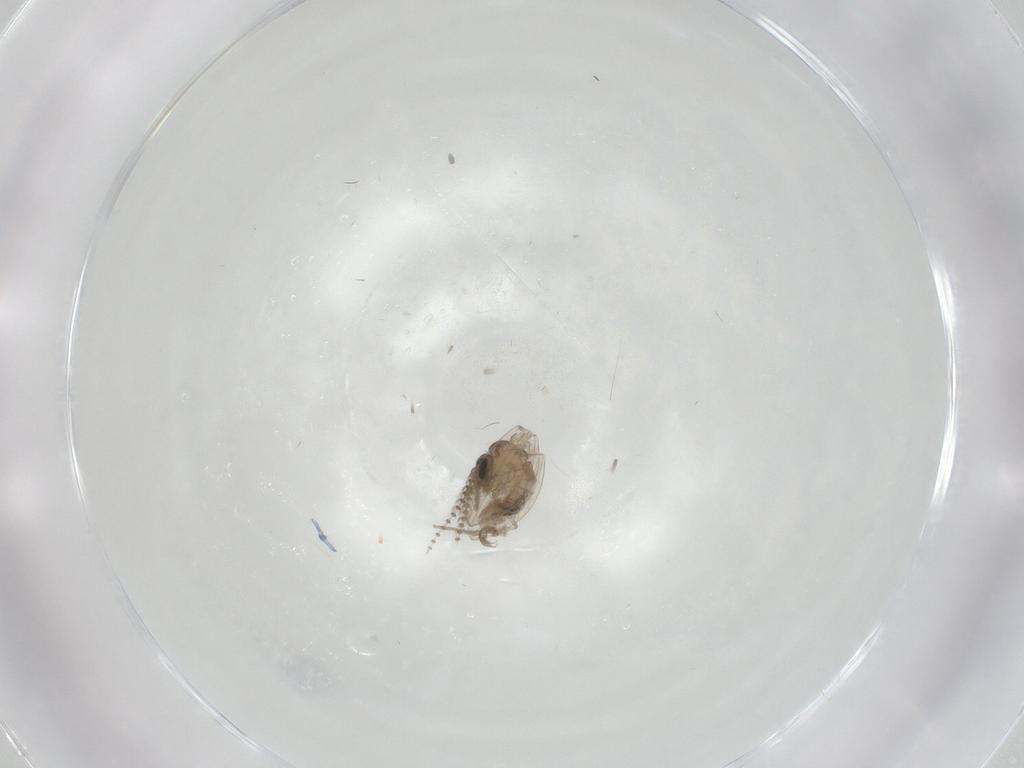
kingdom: Animalia
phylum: Arthropoda
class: Insecta
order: Diptera
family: Psychodidae
